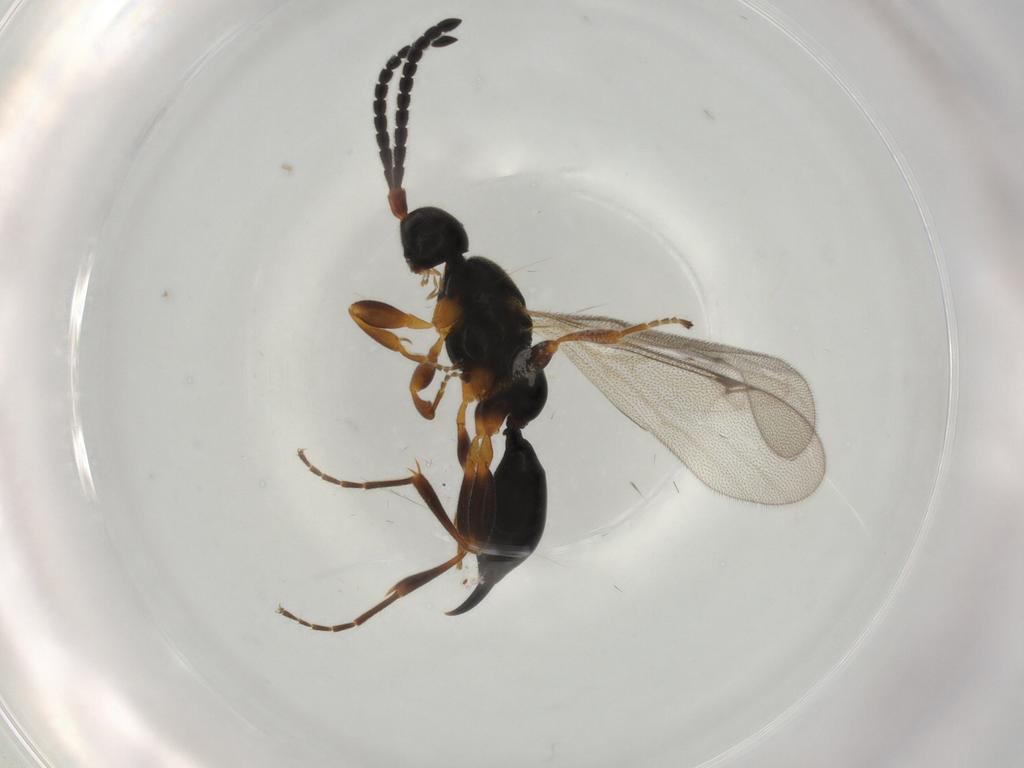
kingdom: Animalia
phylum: Arthropoda
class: Insecta
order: Hymenoptera
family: Proctotrupidae
